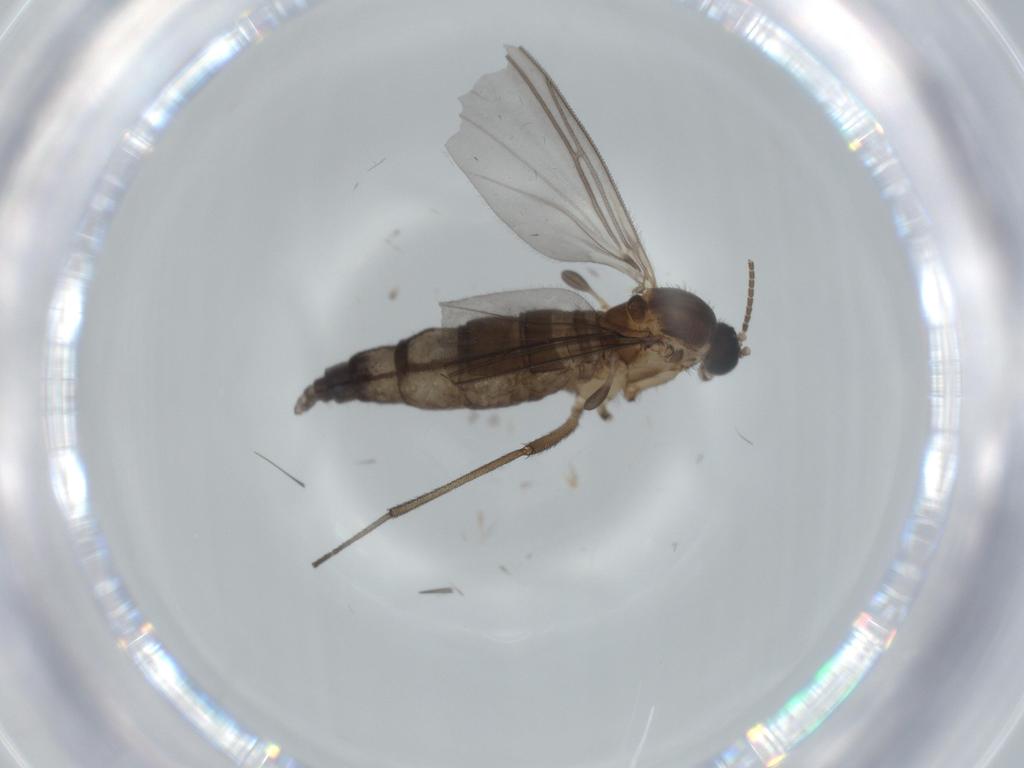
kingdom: Animalia
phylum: Arthropoda
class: Insecta
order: Diptera
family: Sciaridae
